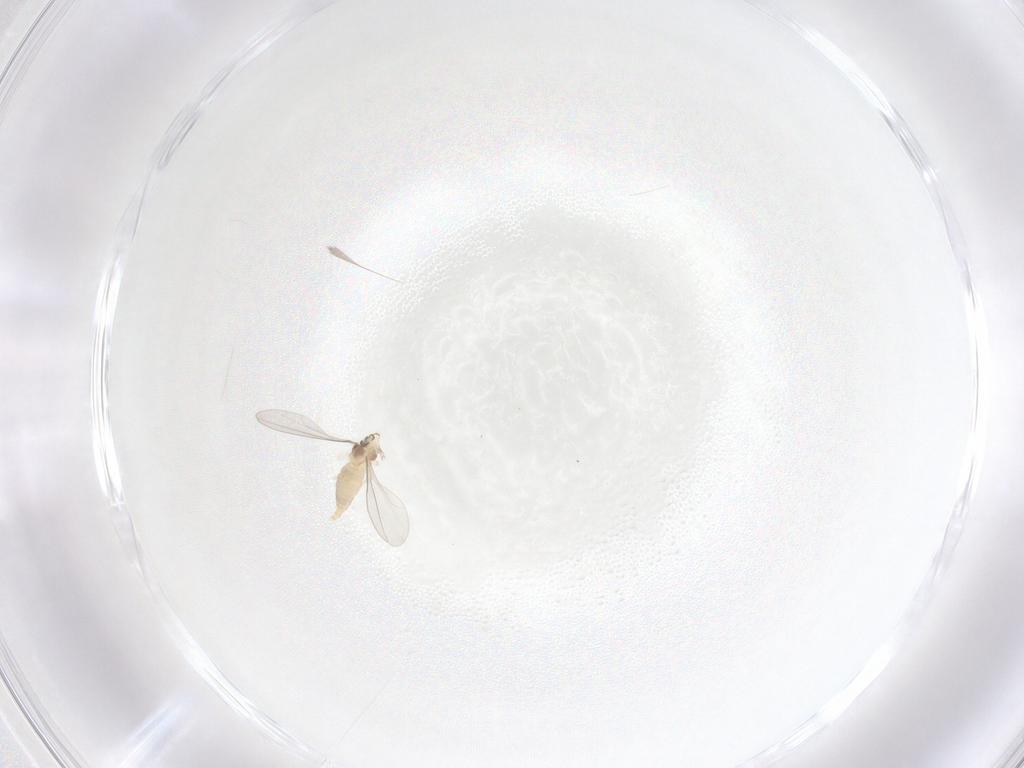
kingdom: Animalia
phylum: Arthropoda
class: Insecta
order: Diptera
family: Cecidomyiidae
